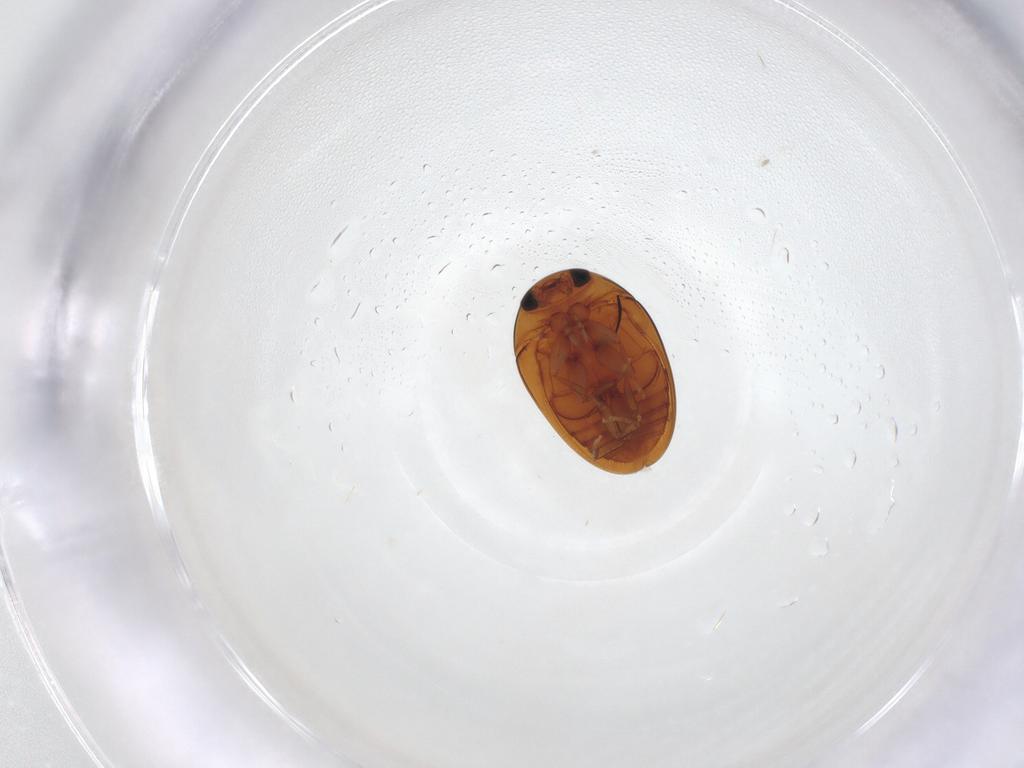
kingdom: Animalia
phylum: Arthropoda
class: Insecta
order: Coleoptera
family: Phalacridae
